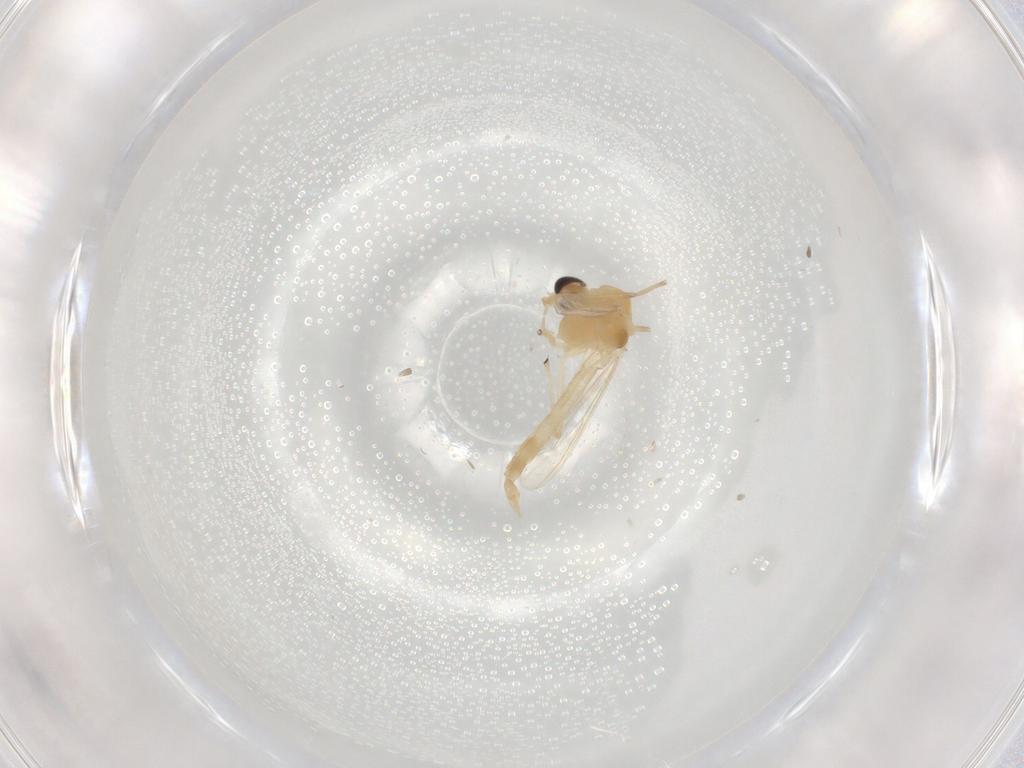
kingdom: Animalia
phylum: Arthropoda
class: Insecta
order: Diptera
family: Chironomidae
